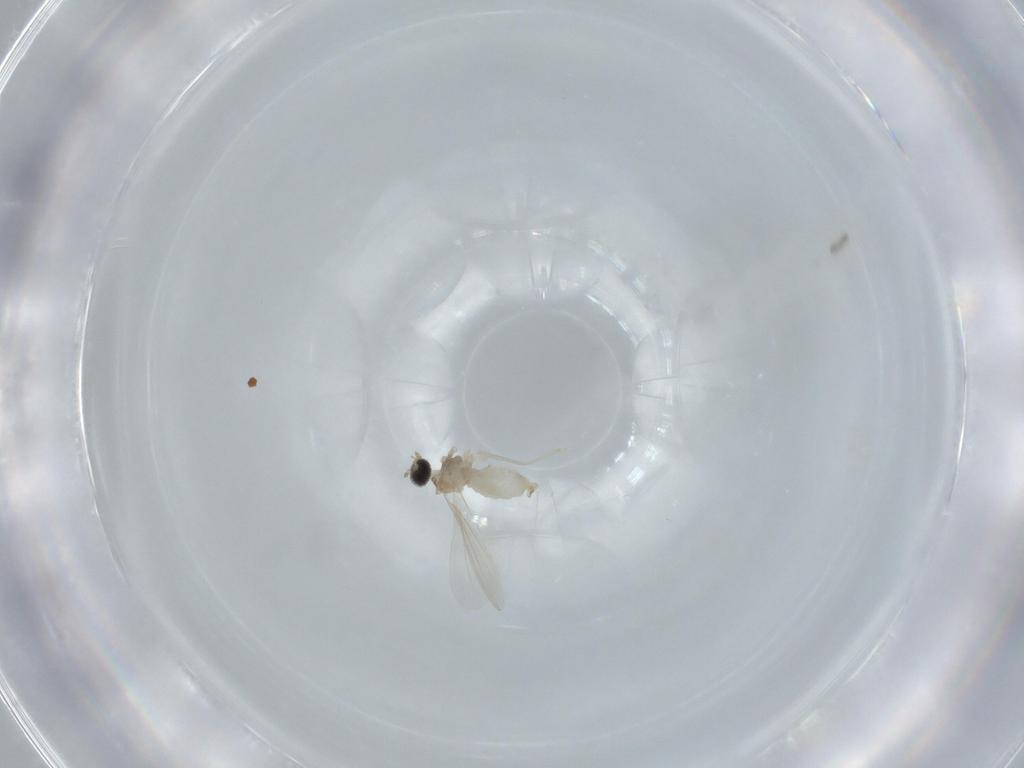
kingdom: Animalia
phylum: Arthropoda
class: Insecta
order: Diptera
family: Cecidomyiidae
